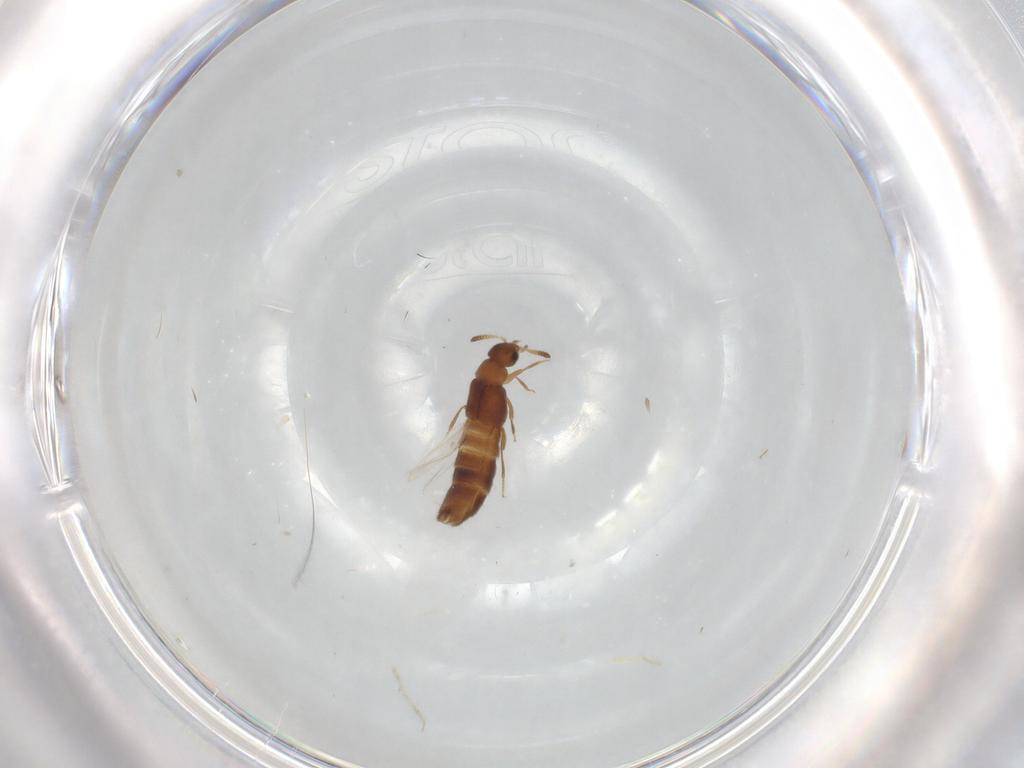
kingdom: Animalia
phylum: Arthropoda
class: Insecta
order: Coleoptera
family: Staphylinidae
